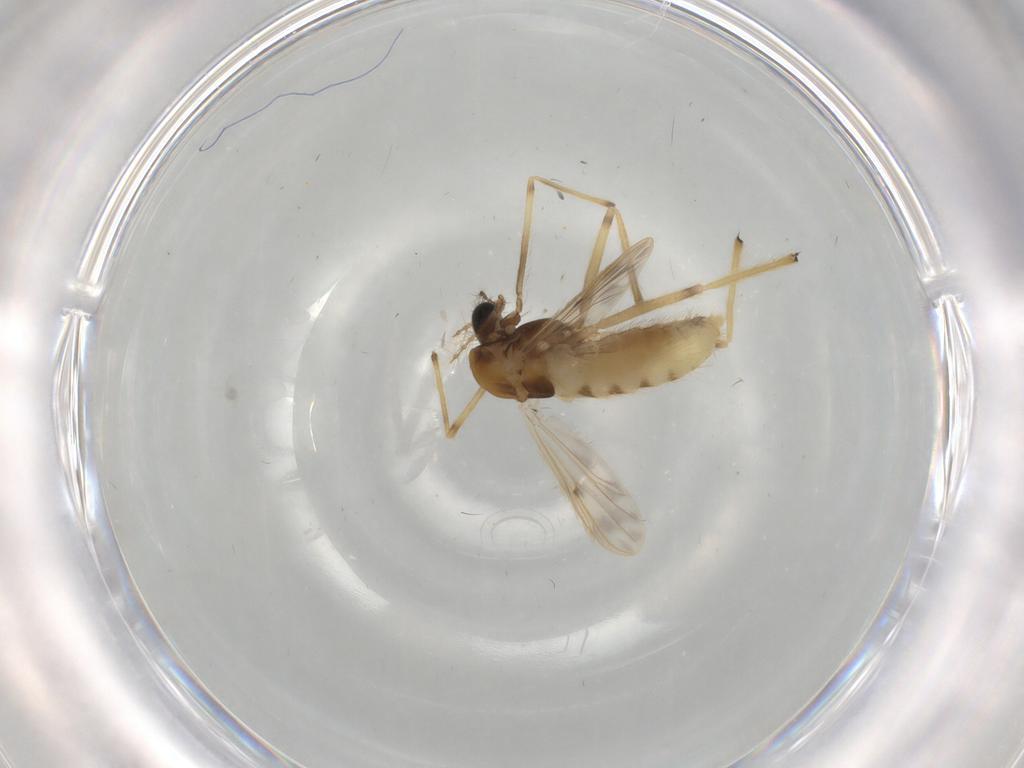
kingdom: Animalia
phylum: Arthropoda
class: Insecta
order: Diptera
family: Chironomidae
